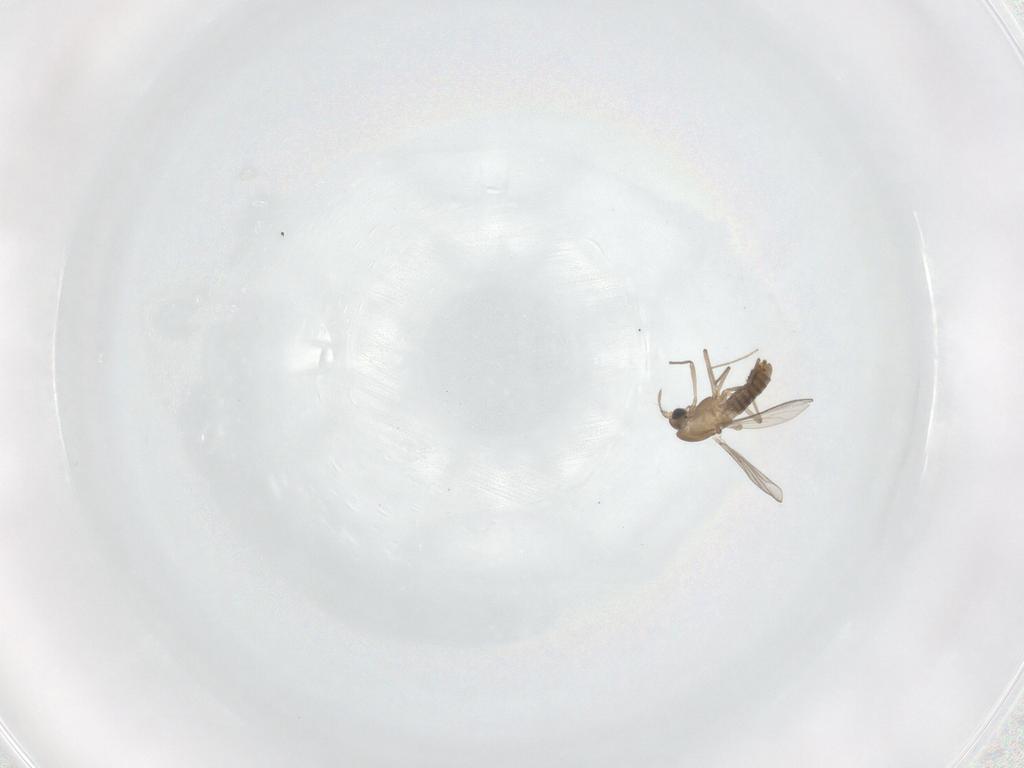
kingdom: Animalia
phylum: Arthropoda
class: Insecta
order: Diptera
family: Chironomidae
